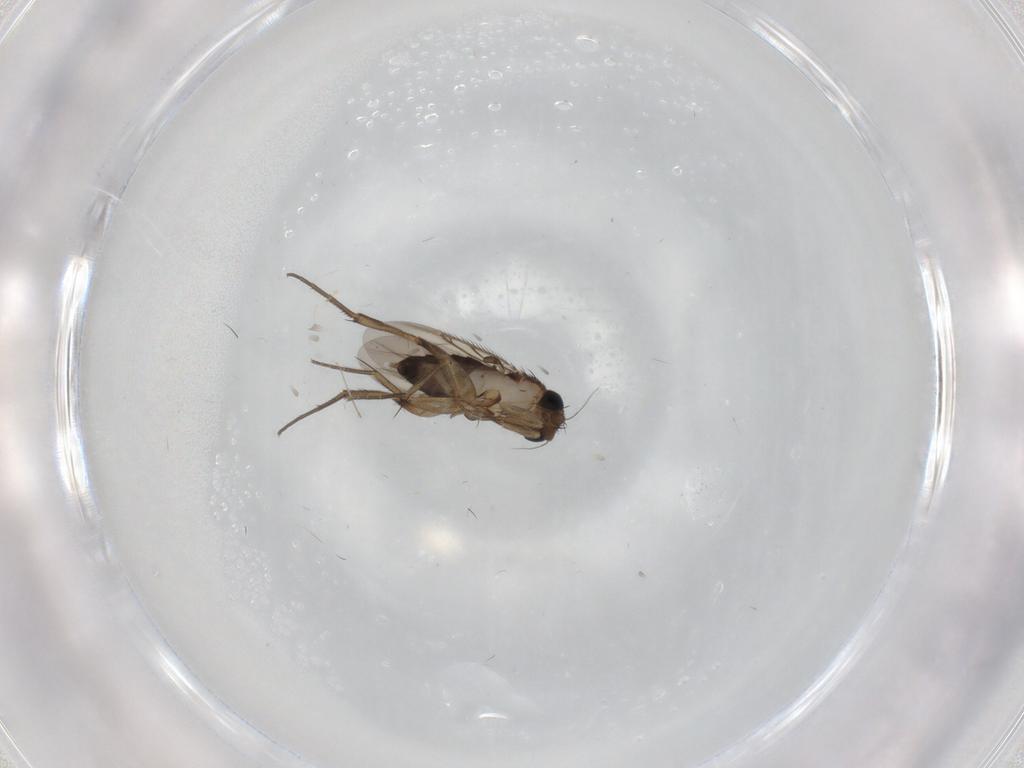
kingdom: Animalia
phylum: Arthropoda
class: Insecta
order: Diptera
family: Phoridae
